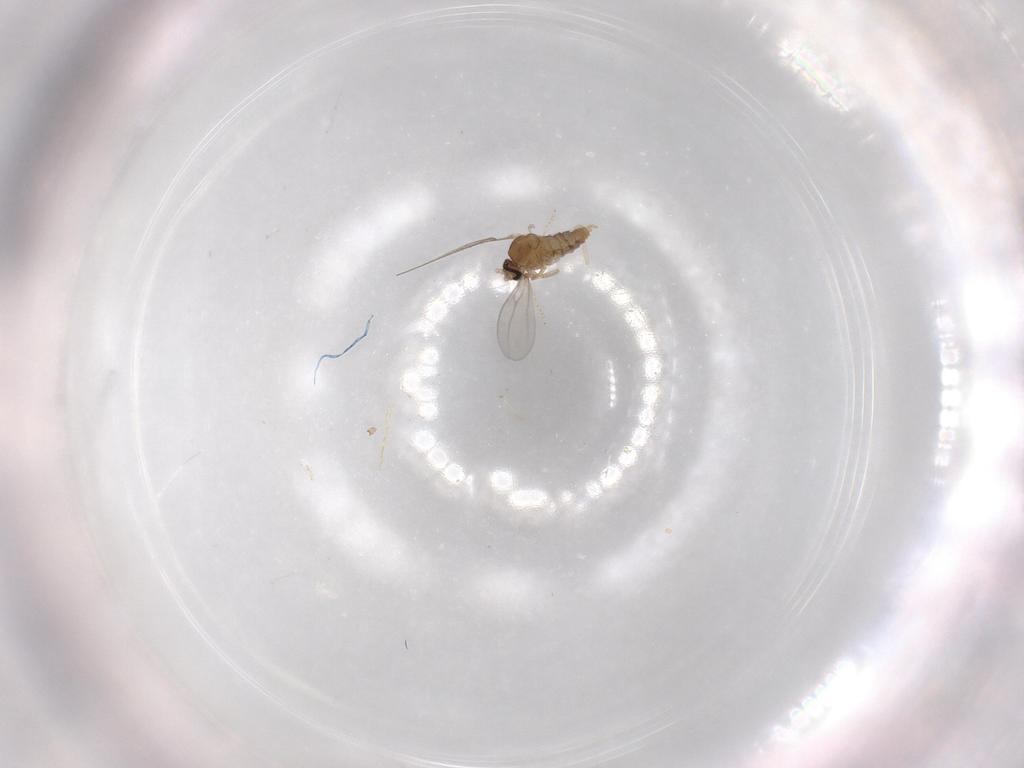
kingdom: Animalia
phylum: Arthropoda
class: Insecta
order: Diptera
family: Cecidomyiidae
